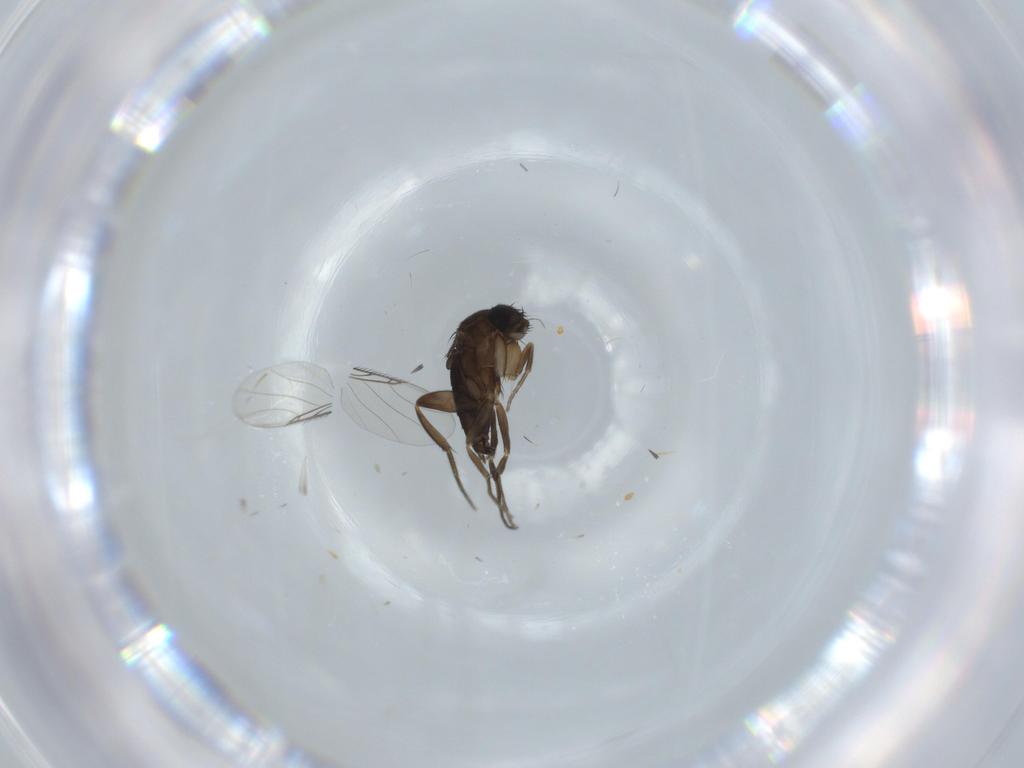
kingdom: Animalia
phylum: Arthropoda
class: Insecta
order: Diptera
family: Phoridae
